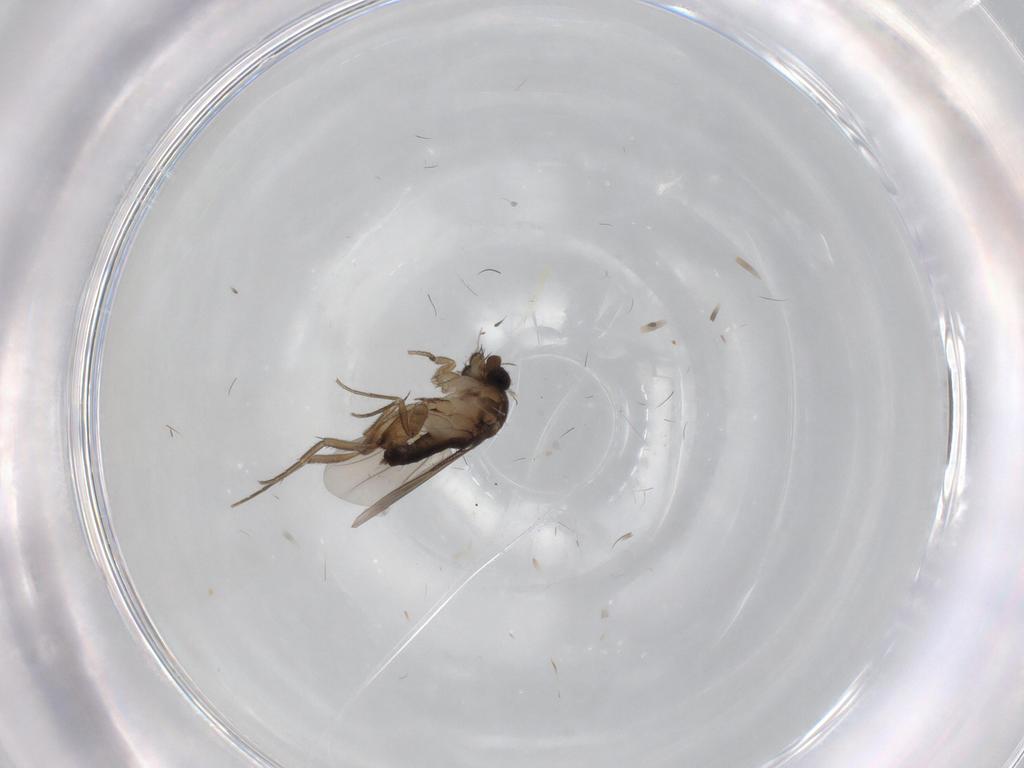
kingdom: Animalia
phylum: Arthropoda
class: Insecta
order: Diptera
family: Phoridae
